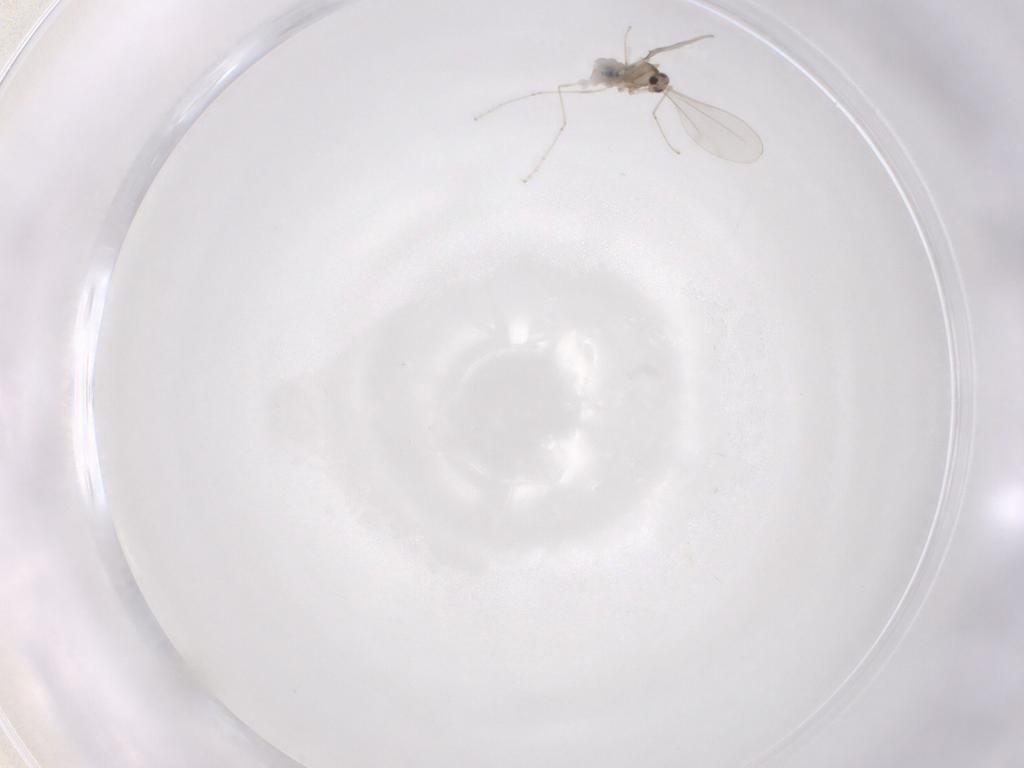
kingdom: Animalia
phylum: Arthropoda
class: Insecta
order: Diptera
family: Cecidomyiidae
